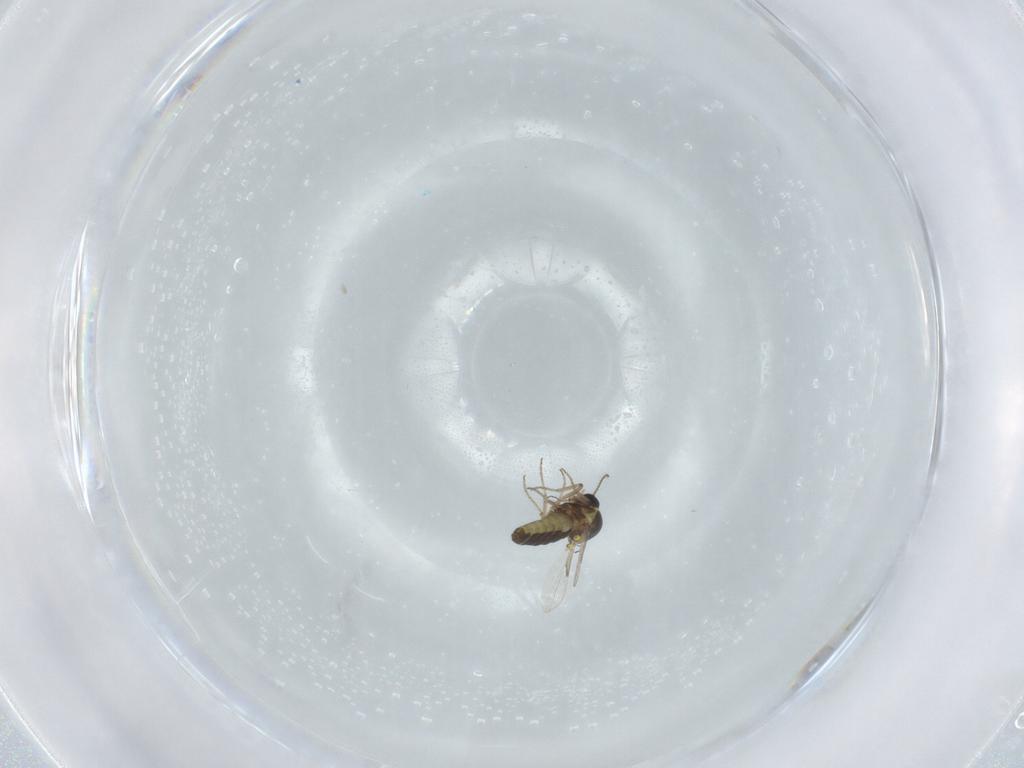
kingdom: Animalia
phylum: Arthropoda
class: Insecta
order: Diptera
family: Ceratopogonidae
